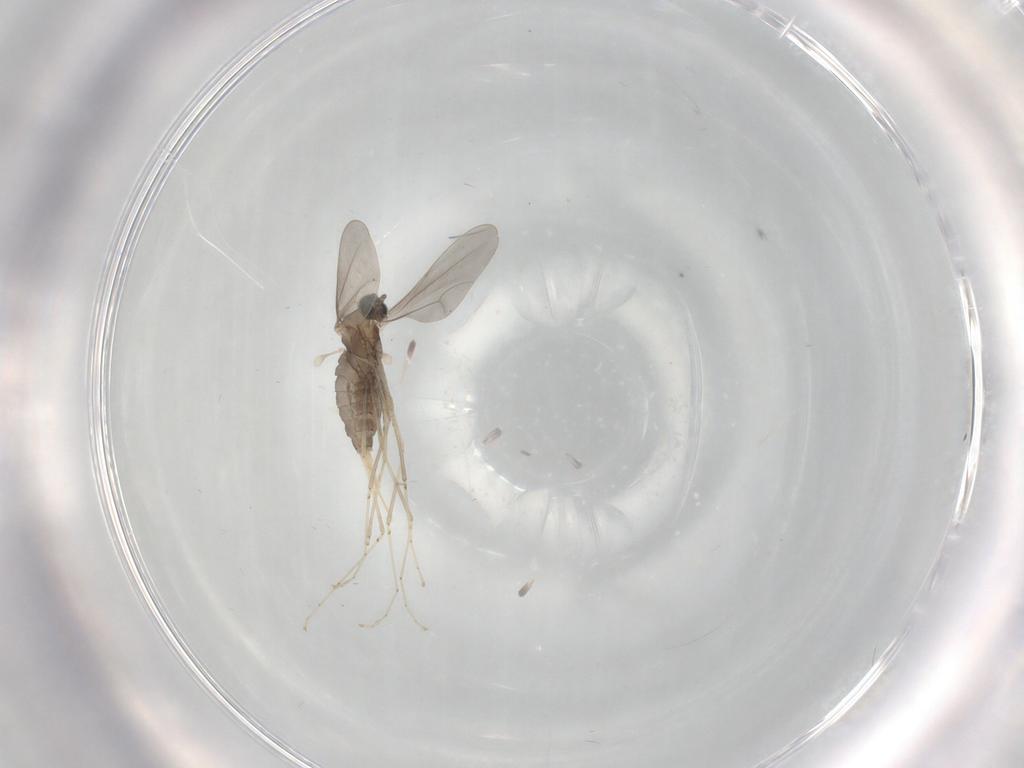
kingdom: Animalia
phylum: Arthropoda
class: Insecta
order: Diptera
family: Cecidomyiidae
